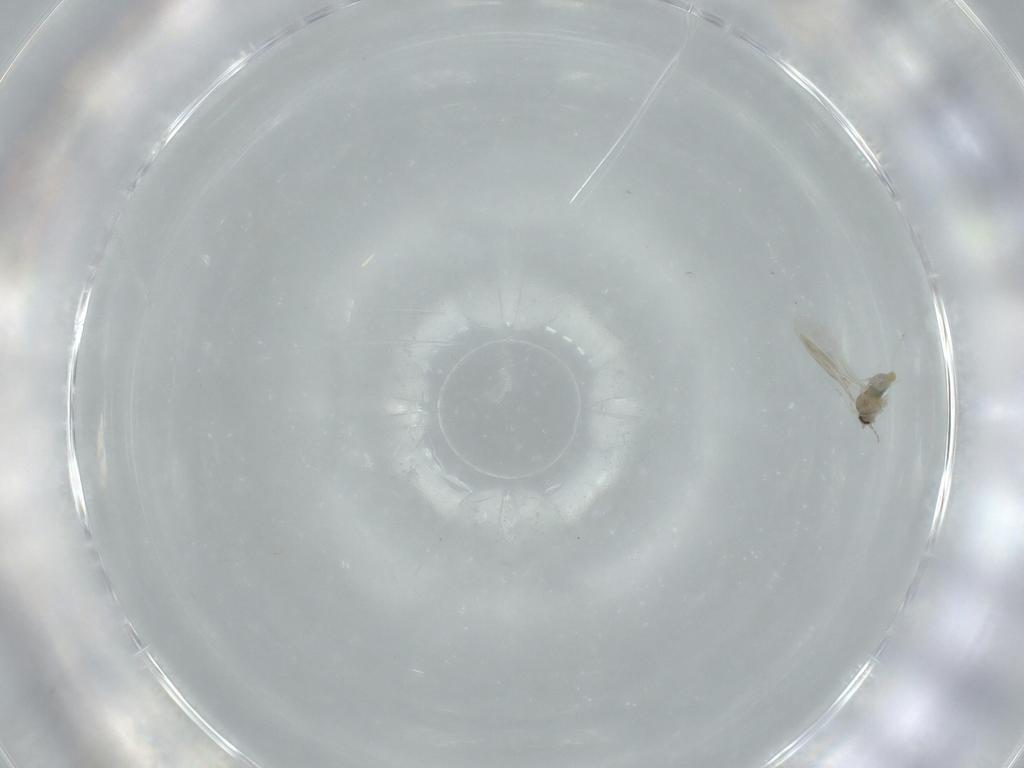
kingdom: Animalia
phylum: Arthropoda
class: Insecta
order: Diptera
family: Cecidomyiidae
